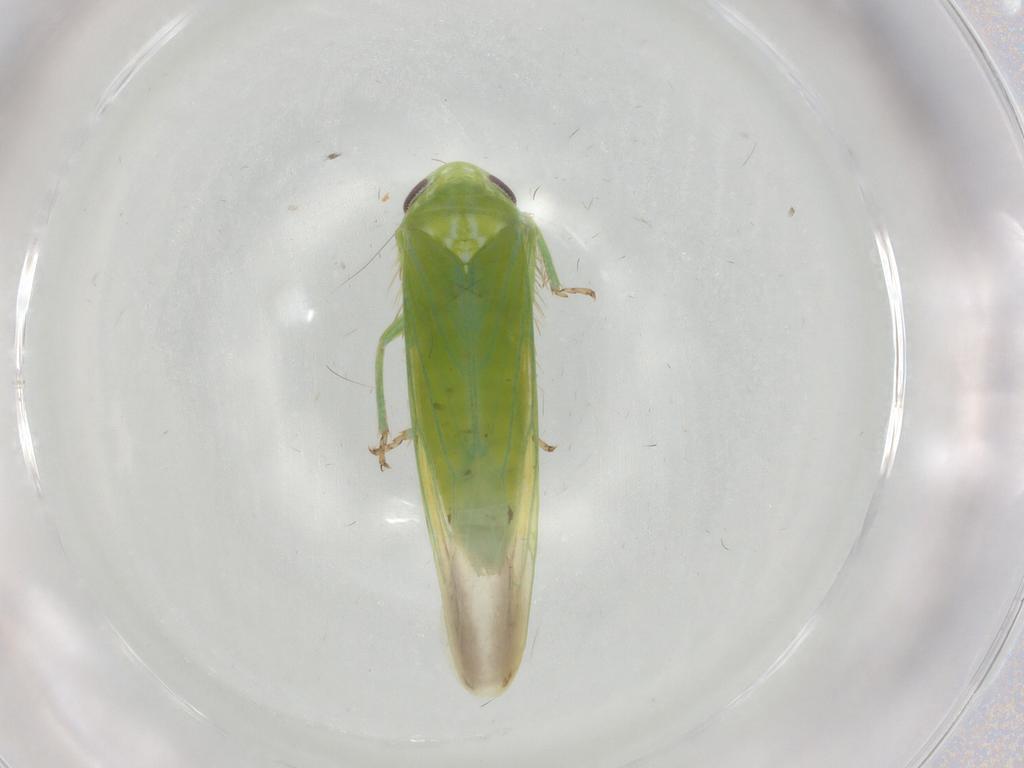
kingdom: Animalia
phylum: Arthropoda
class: Insecta
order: Hemiptera
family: Cicadellidae
